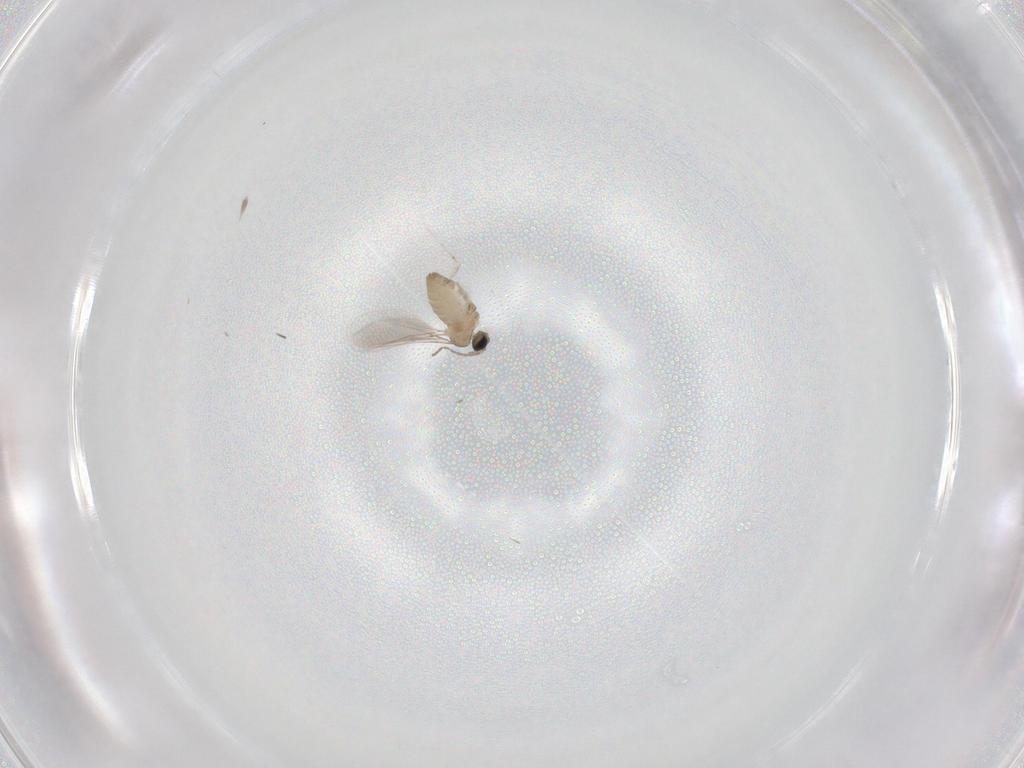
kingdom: Animalia
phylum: Arthropoda
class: Insecta
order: Diptera
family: Cecidomyiidae
